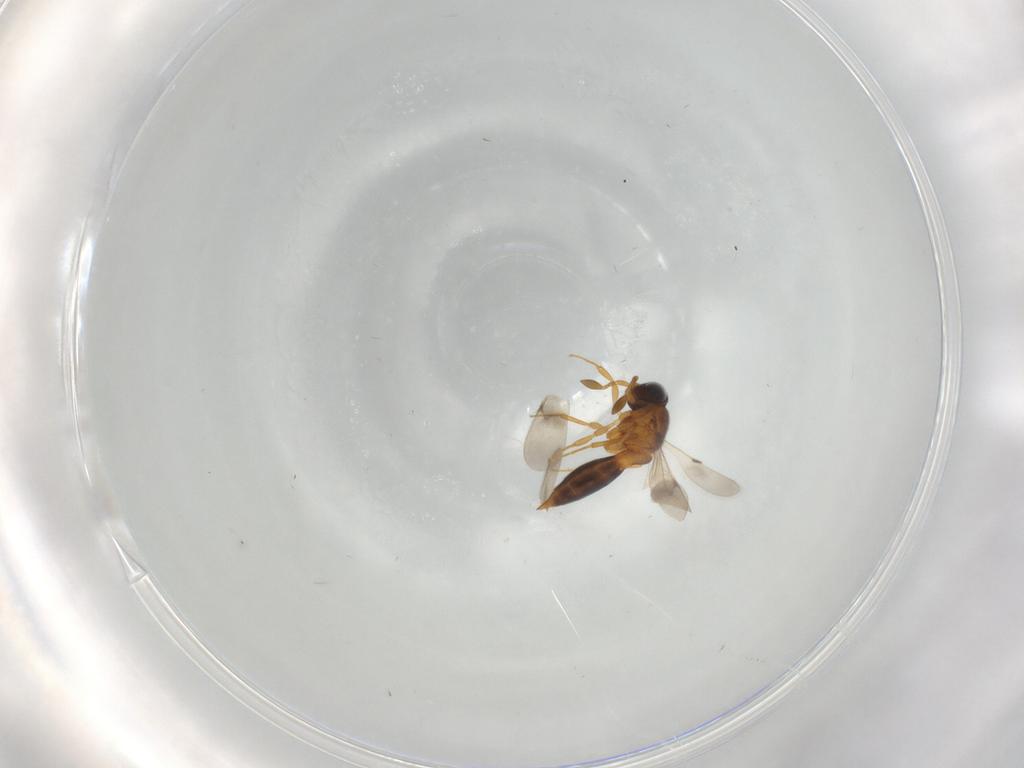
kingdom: Animalia
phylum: Arthropoda
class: Insecta
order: Hymenoptera
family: Scelionidae
